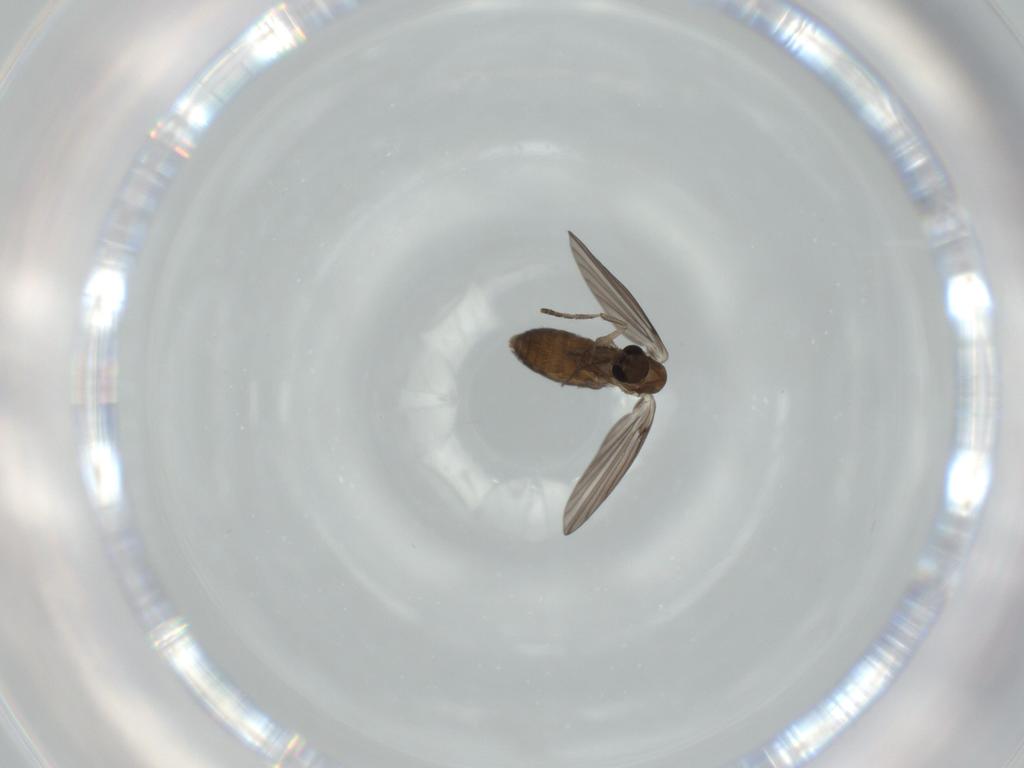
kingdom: Animalia
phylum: Arthropoda
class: Insecta
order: Diptera
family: Psychodidae
